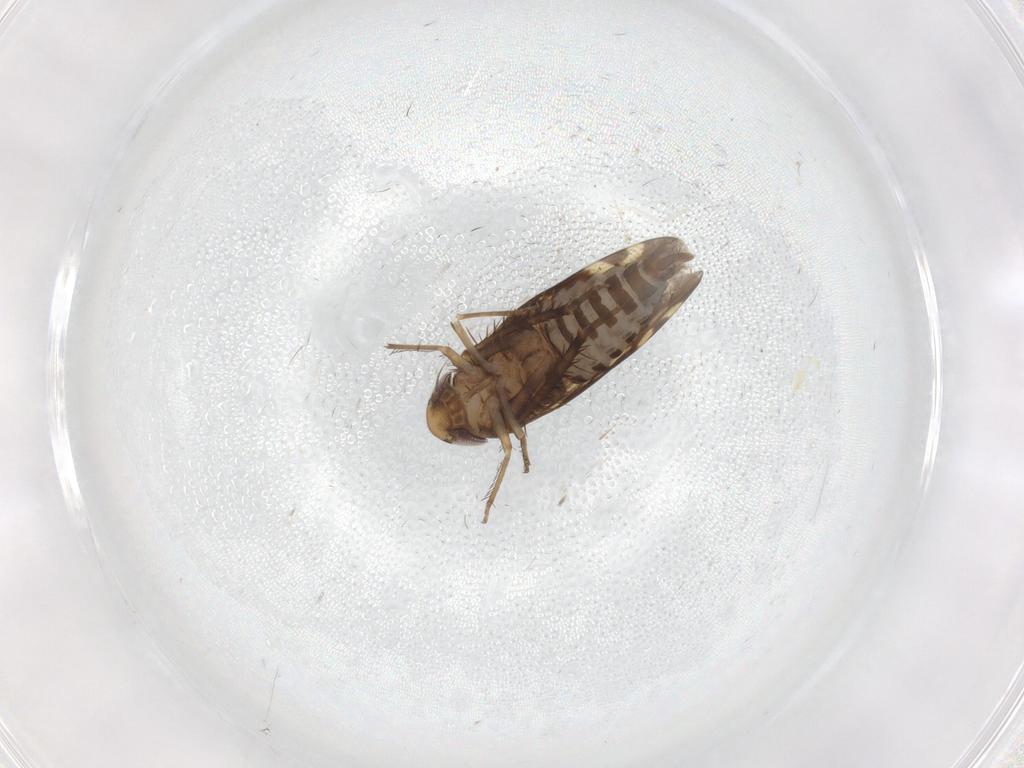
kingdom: Animalia
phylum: Arthropoda
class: Insecta
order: Hemiptera
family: Cicadellidae
